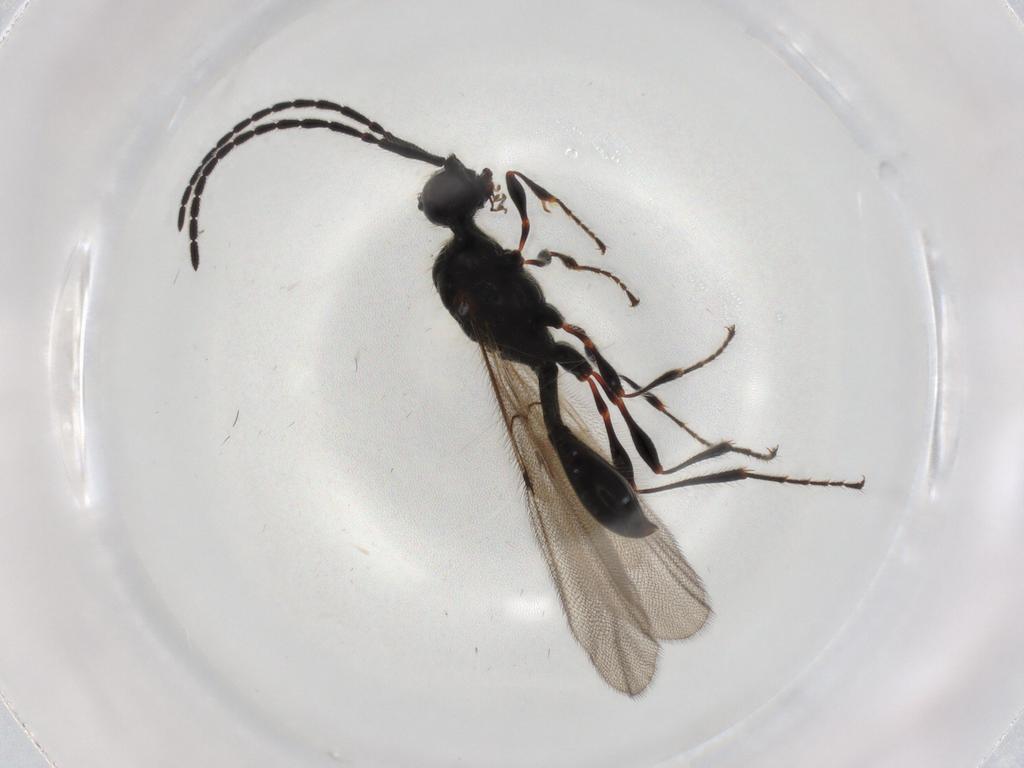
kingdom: Animalia
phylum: Arthropoda
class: Insecta
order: Hymenoptera
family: Diapriidae
